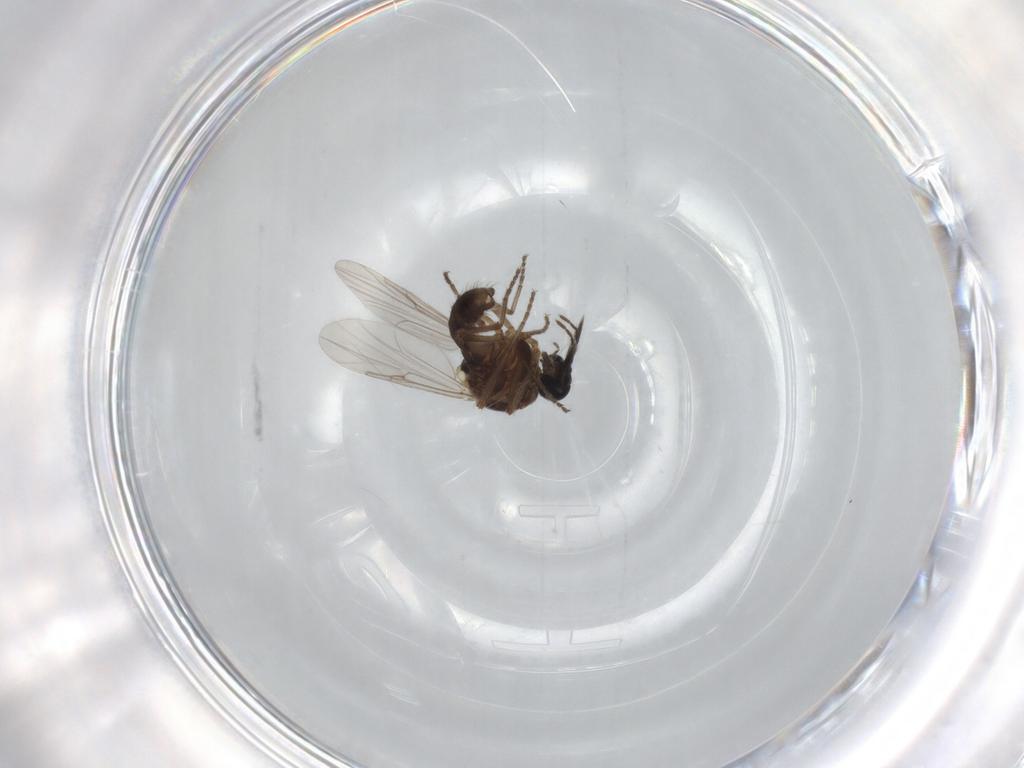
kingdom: Animalia
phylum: Arthropoda
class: Insecta
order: Diptera
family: Ceratopogonidae
